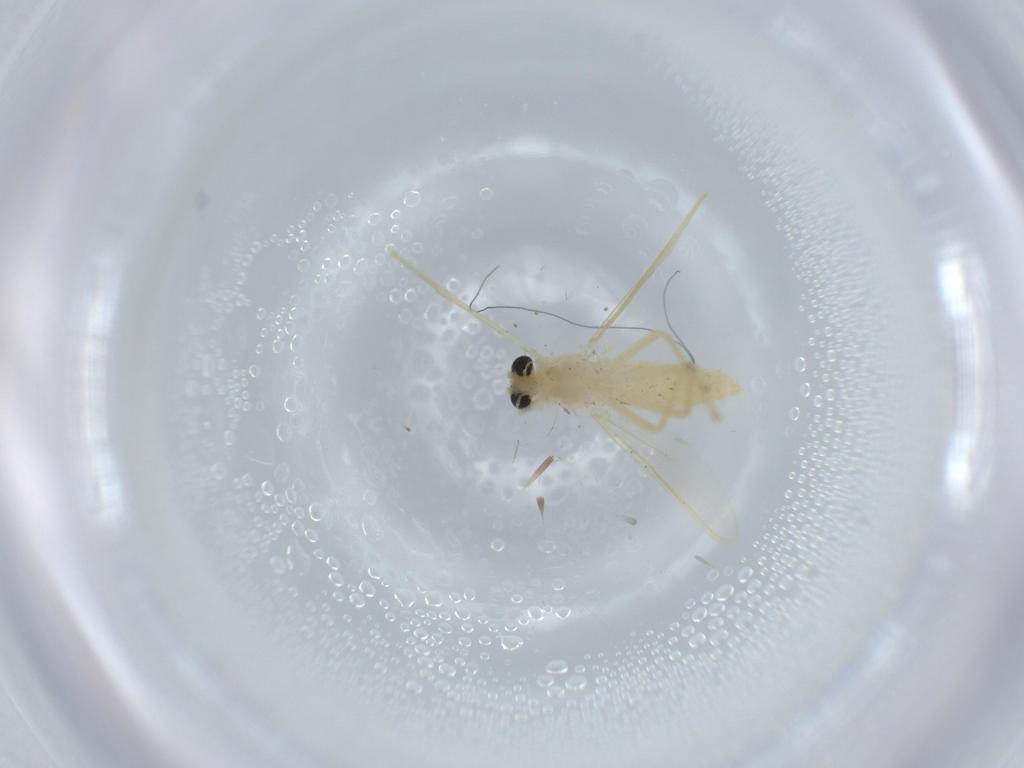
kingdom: Animalia
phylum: Arthropoda
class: Insecta
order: Diptera
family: Chironomidae
